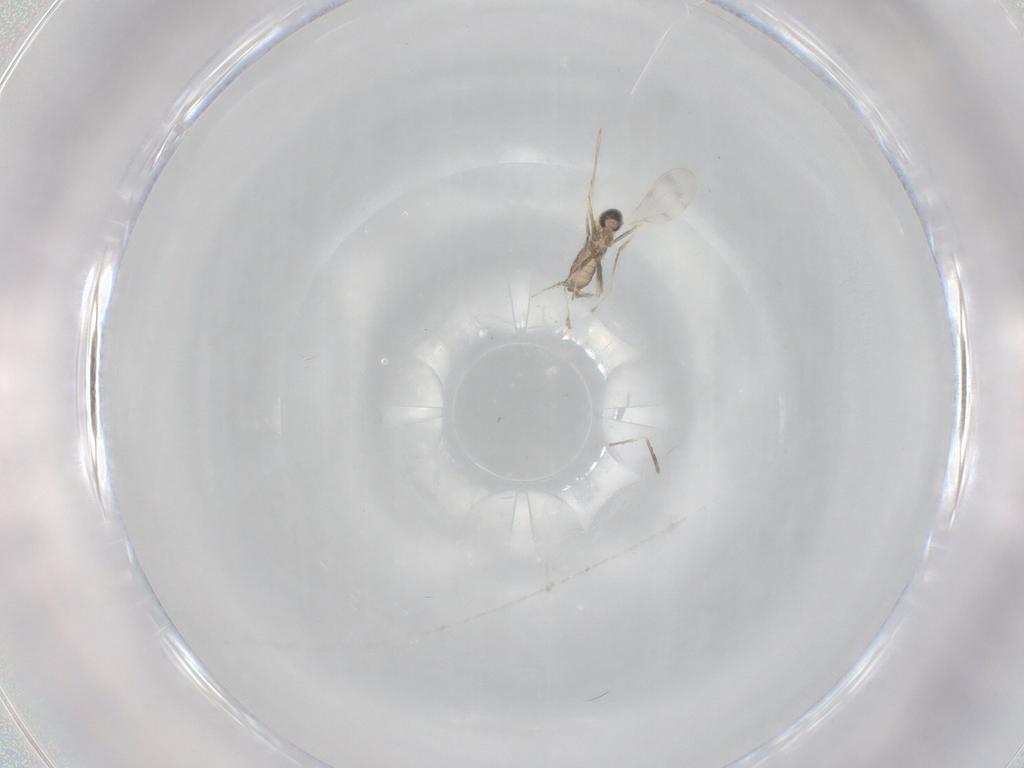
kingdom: Animalia
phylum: Arthropoda
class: Insecta
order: Diptera
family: Cecidomyiidae
